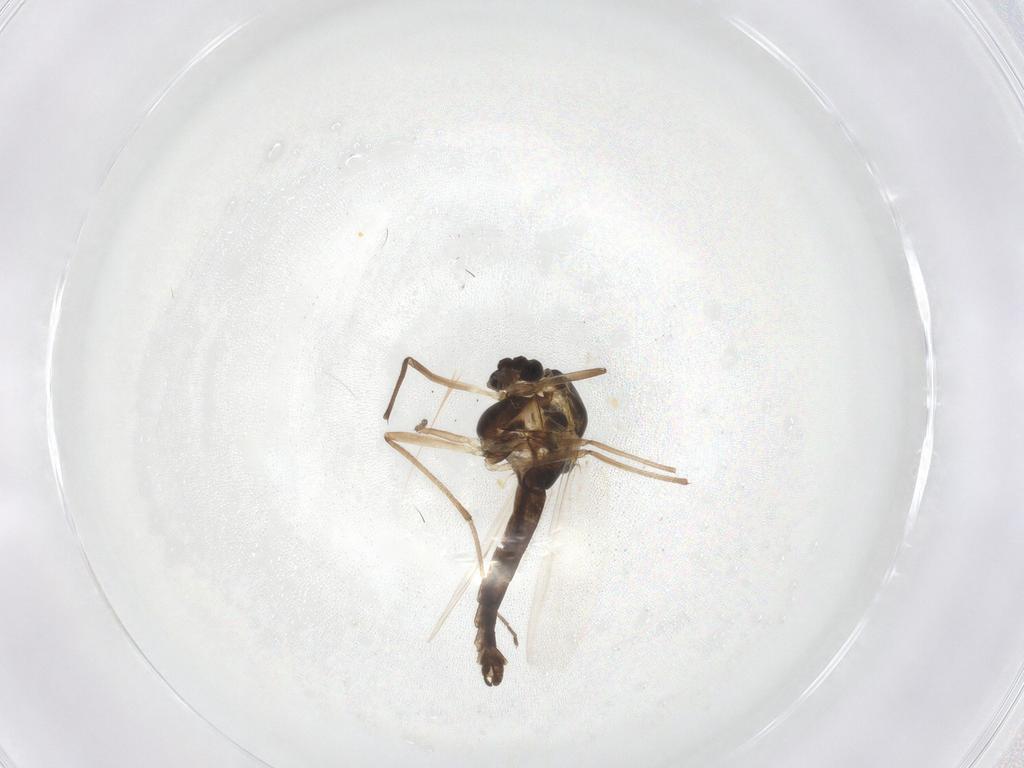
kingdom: Animalia
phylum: Arthropoda
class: Insecta
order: Diptera
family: Chironomidae
